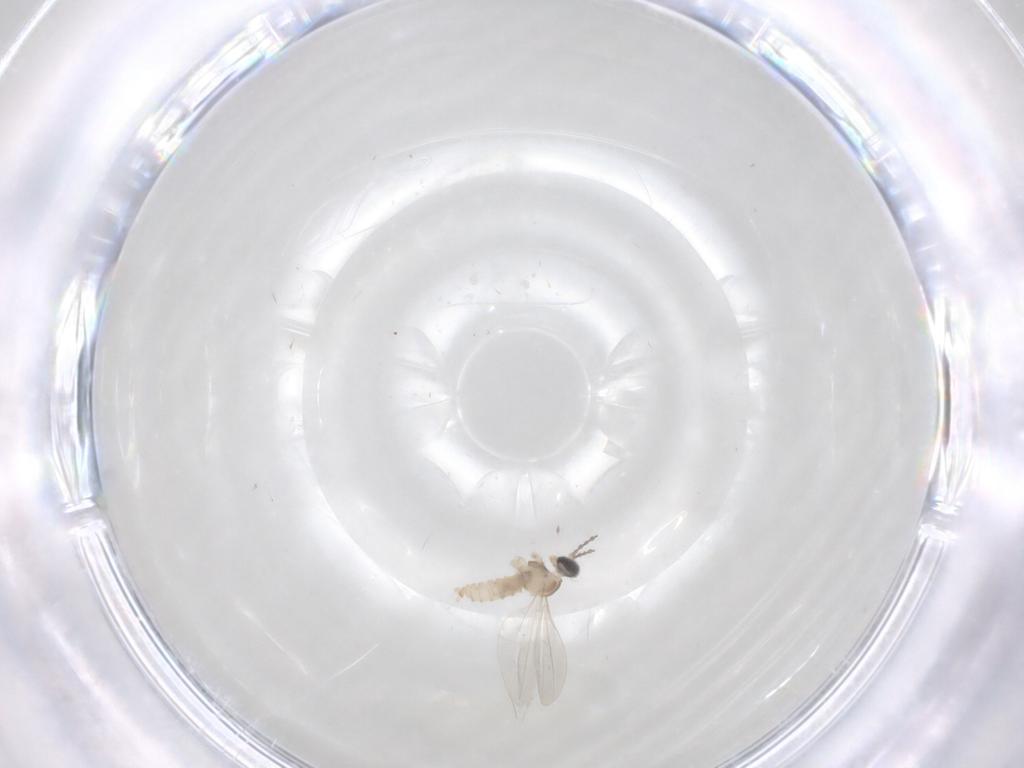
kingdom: Animalia
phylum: Arthropoda
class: Insecta
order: Diptera
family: Cecidomyiidae
